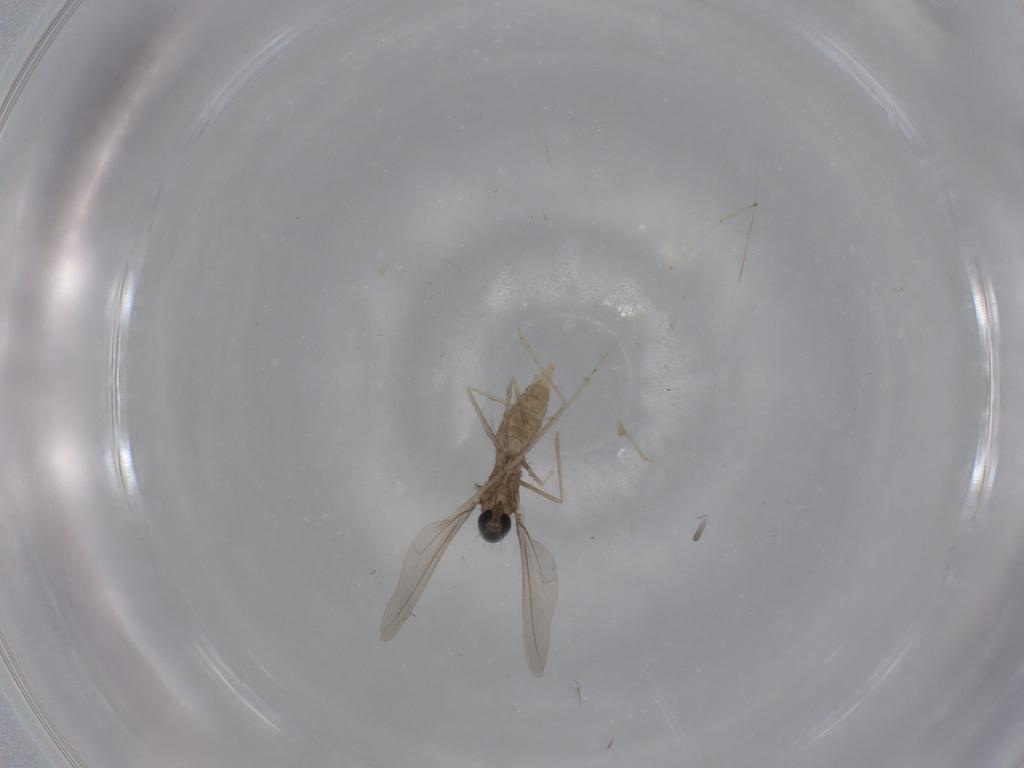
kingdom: Animalia
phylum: Arthropoda
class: Insecta
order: Diptera
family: Cecidomyiidae
